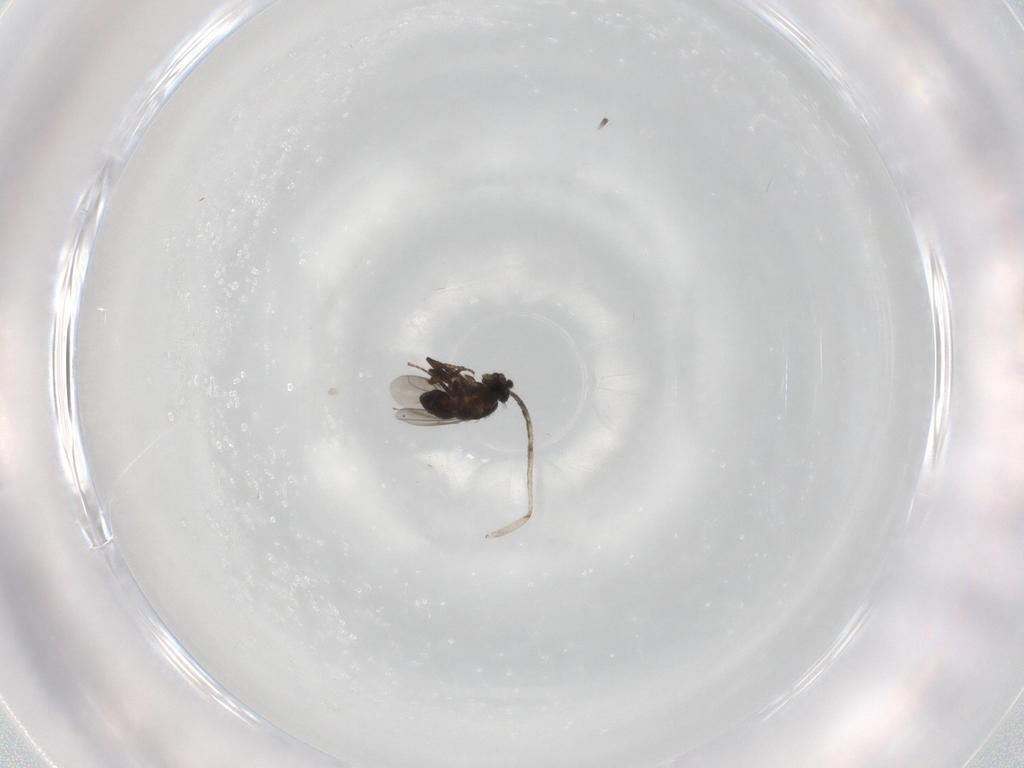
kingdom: Animalia
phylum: Arthropoda
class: Insecta
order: Diptera
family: Psychodidae
